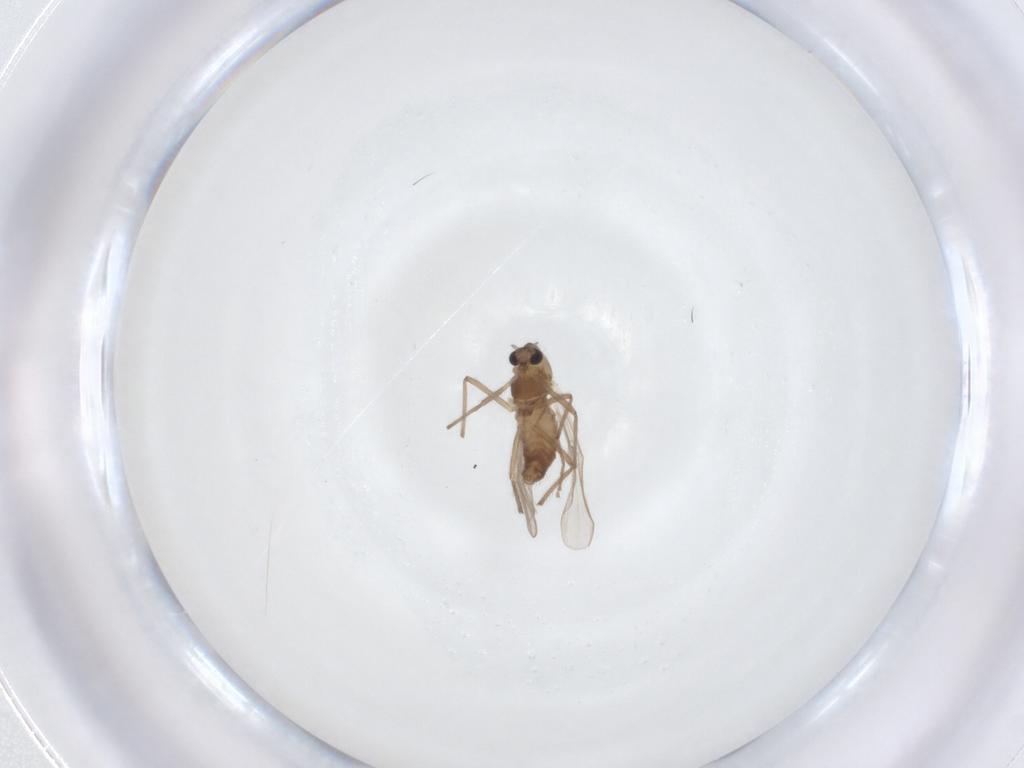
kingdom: Animalia
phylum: Arthropoda
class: Insecta
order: Diptera
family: Chironomidae
